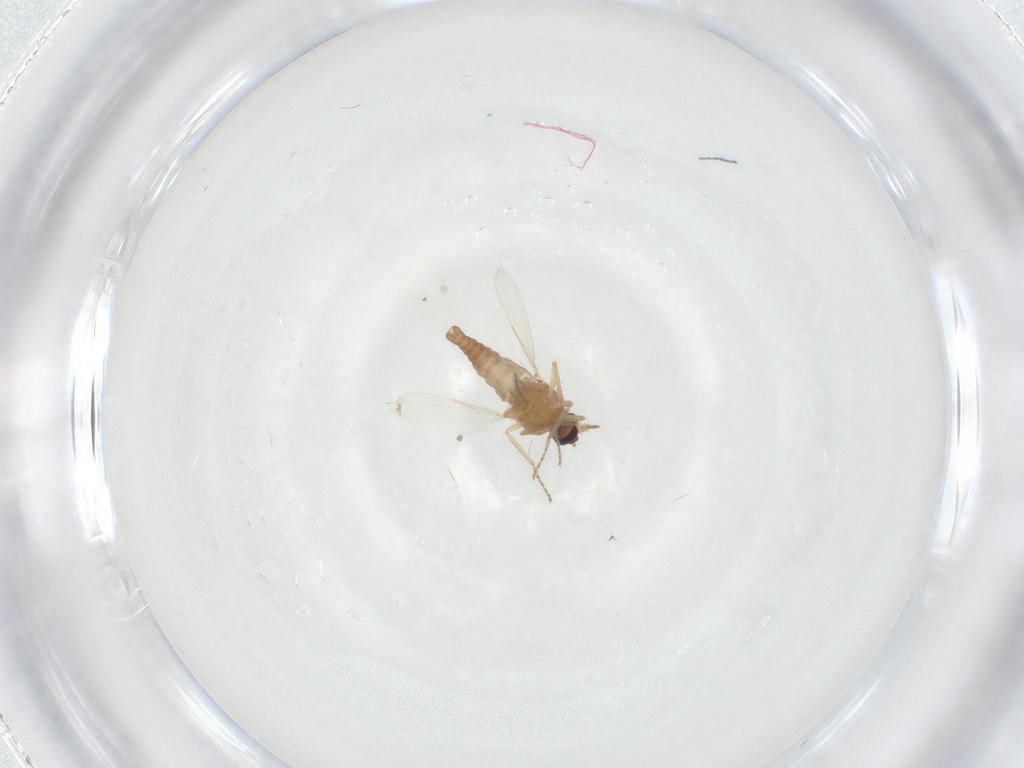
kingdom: Animalia
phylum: Arthropoda
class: Insecta
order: Diptera
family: Ceratopogonidae
